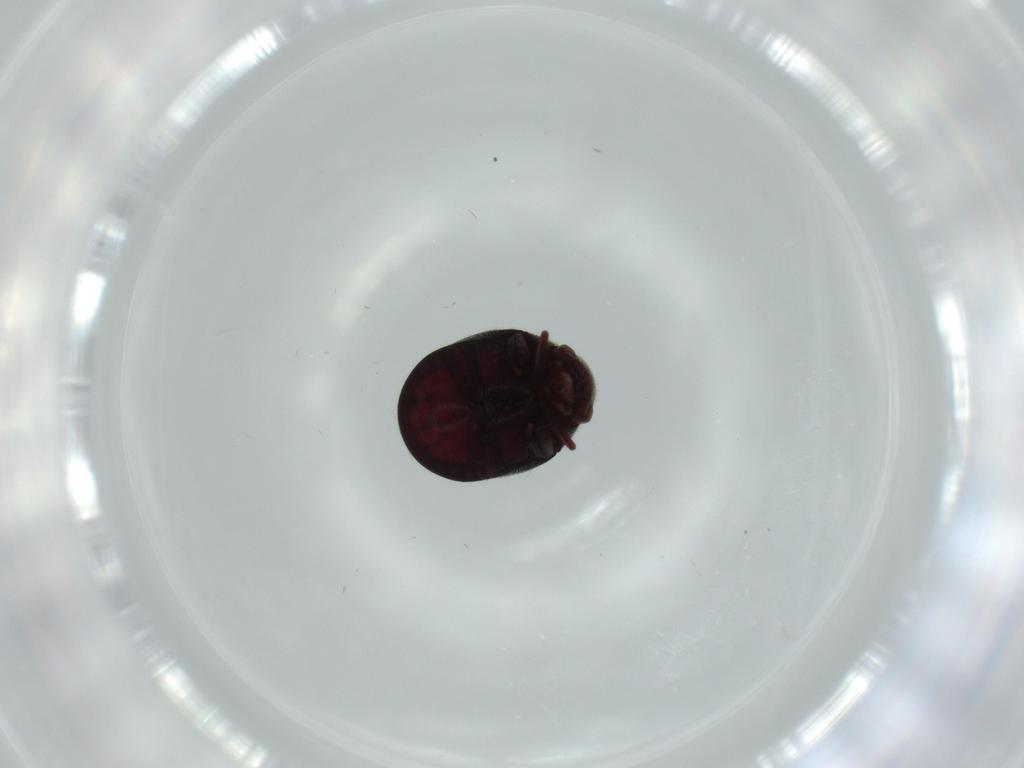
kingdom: Animalia
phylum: Arthropoda
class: Insecta
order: Coleoptera
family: Ptinidae
